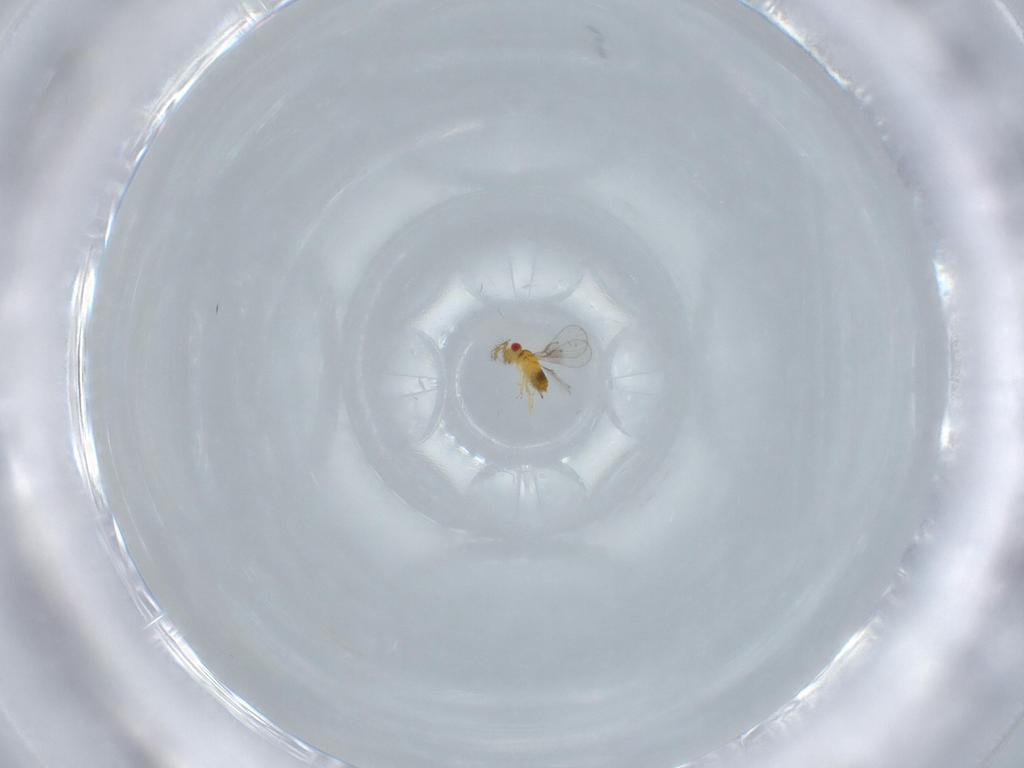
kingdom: Animalia
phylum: Arthropoda
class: Insecta
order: Hymenoptera
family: Trichogrammatidae
